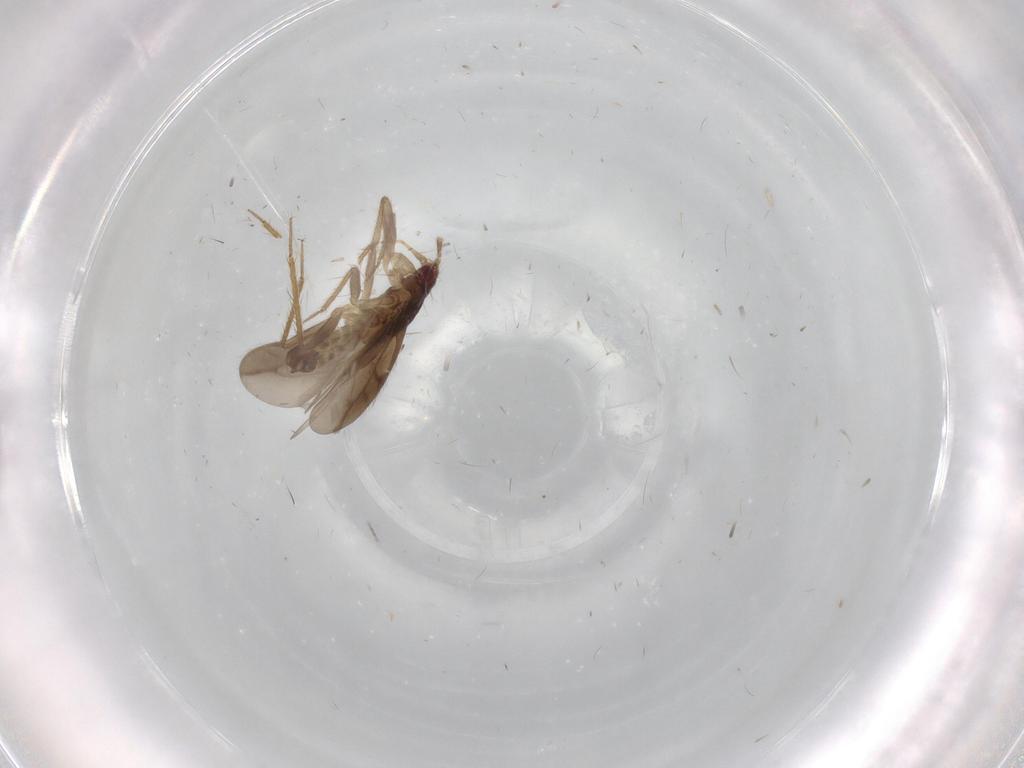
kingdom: Animalia
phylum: Arthropoda
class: Insecta
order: Hemiptera
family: Ceratocombidae
